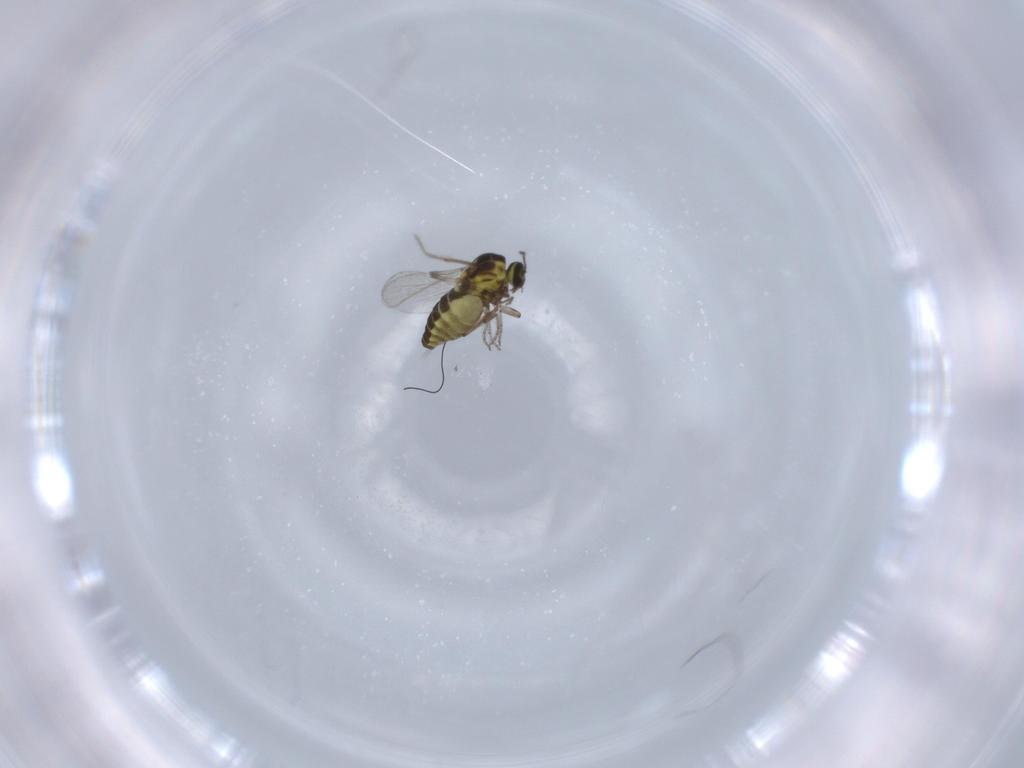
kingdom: Animalia
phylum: Arthropoda
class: Insecta
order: Diptera
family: Ceratopogonidae
